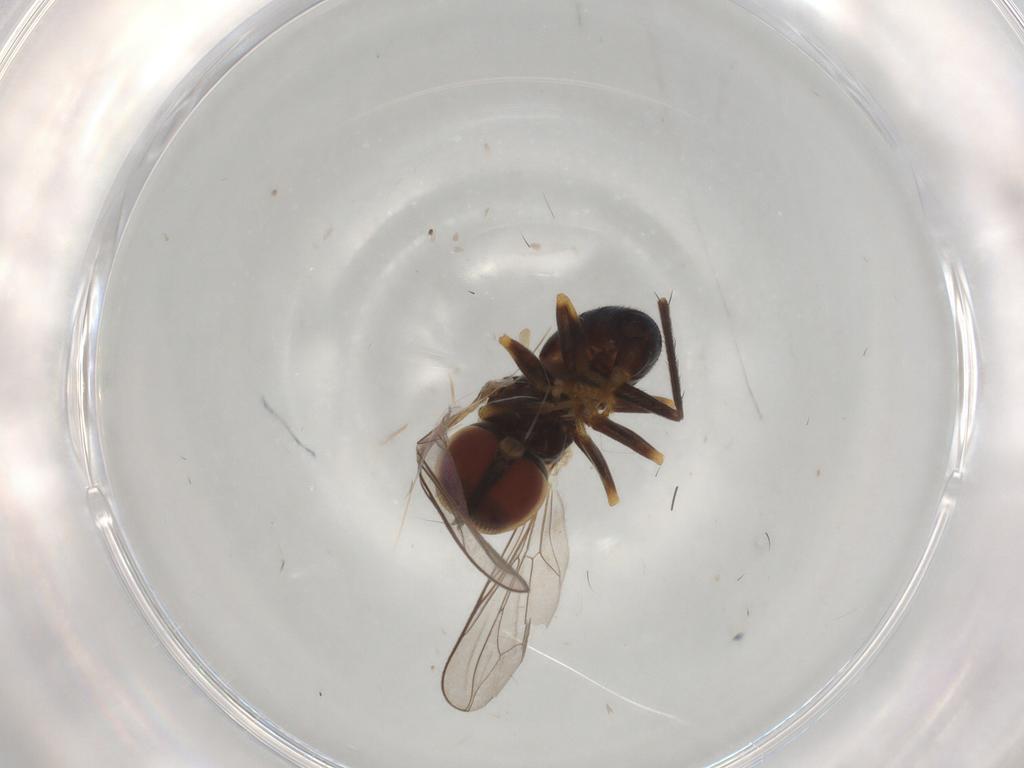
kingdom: Animalia
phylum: Arthropoda
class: Insecta
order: Diptera
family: Pipunculidae
